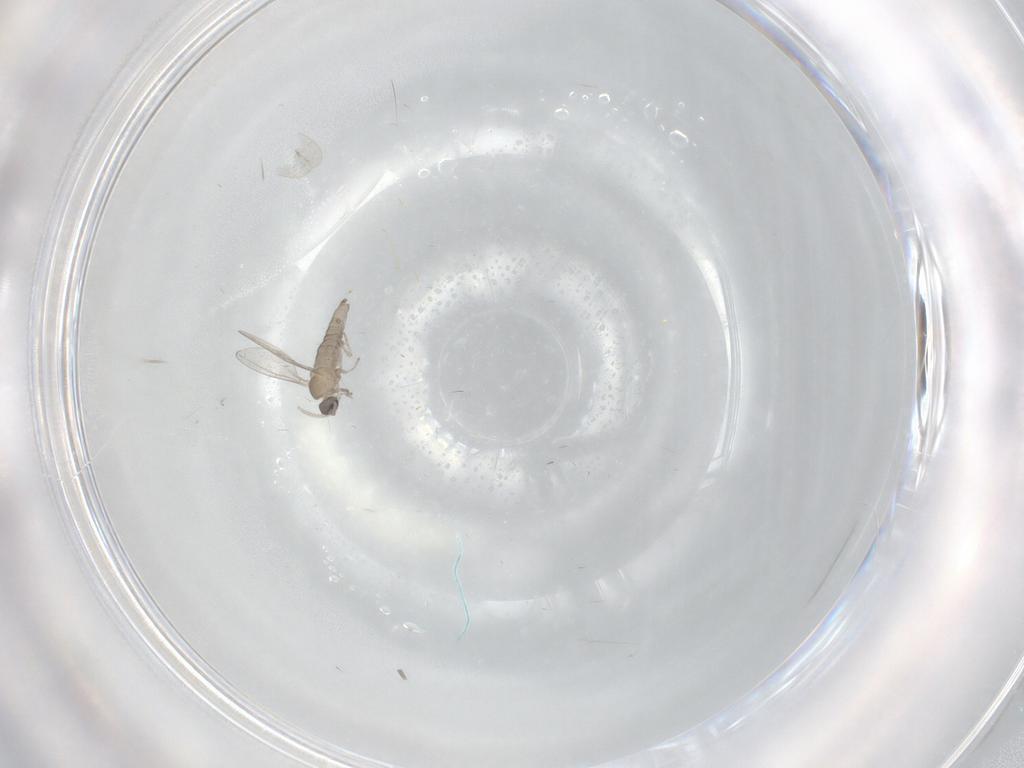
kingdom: Animalia
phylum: Arthropoda
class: Insecta
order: Diptera
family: Cecidomyiidae
